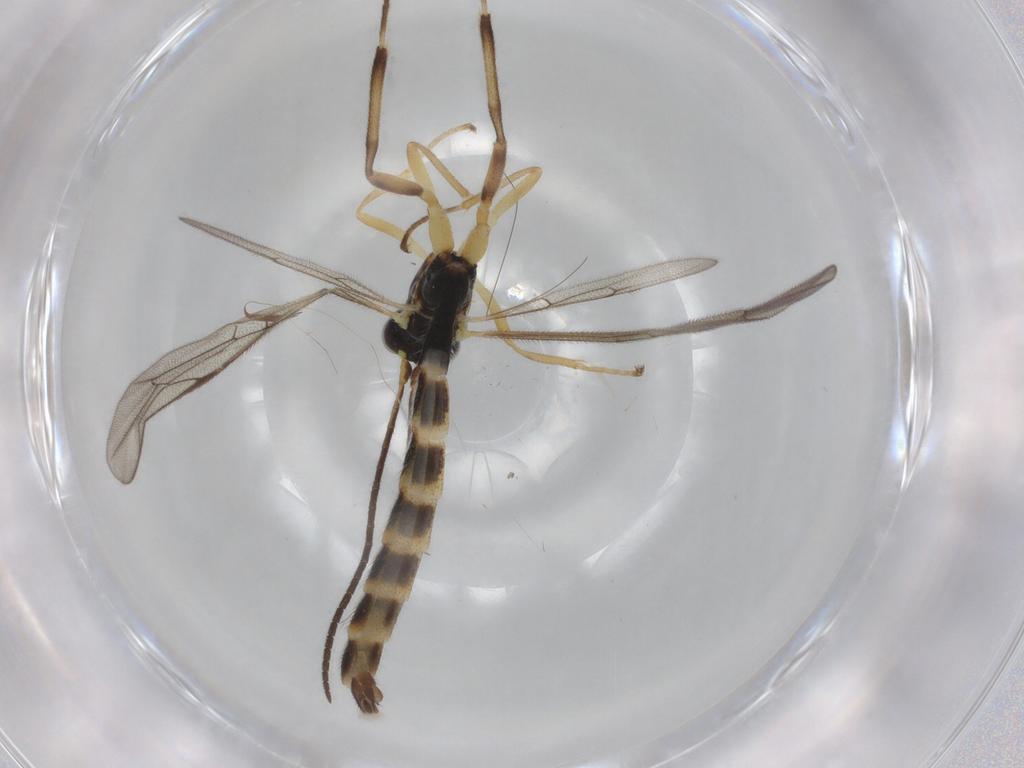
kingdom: Animalia
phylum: Arthropoda
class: Insecta
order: Hymenoptera
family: Ichneumonidae
